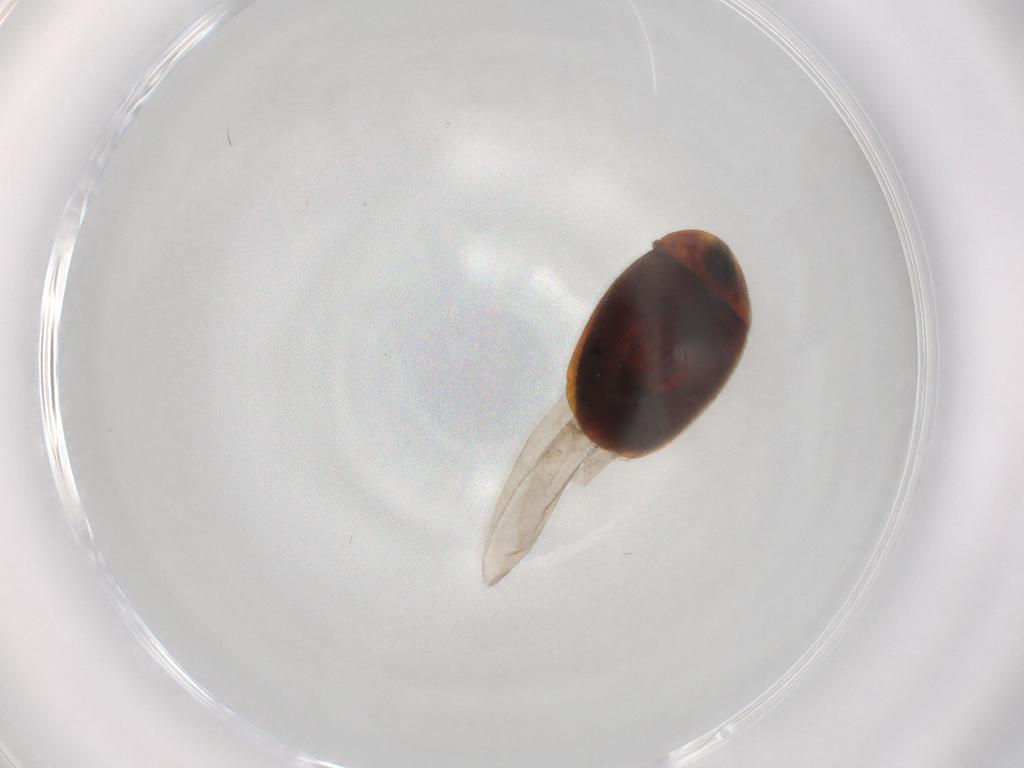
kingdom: Animalia
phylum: Arthropoda
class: Insecta
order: Coleoptera
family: Corylophidae
